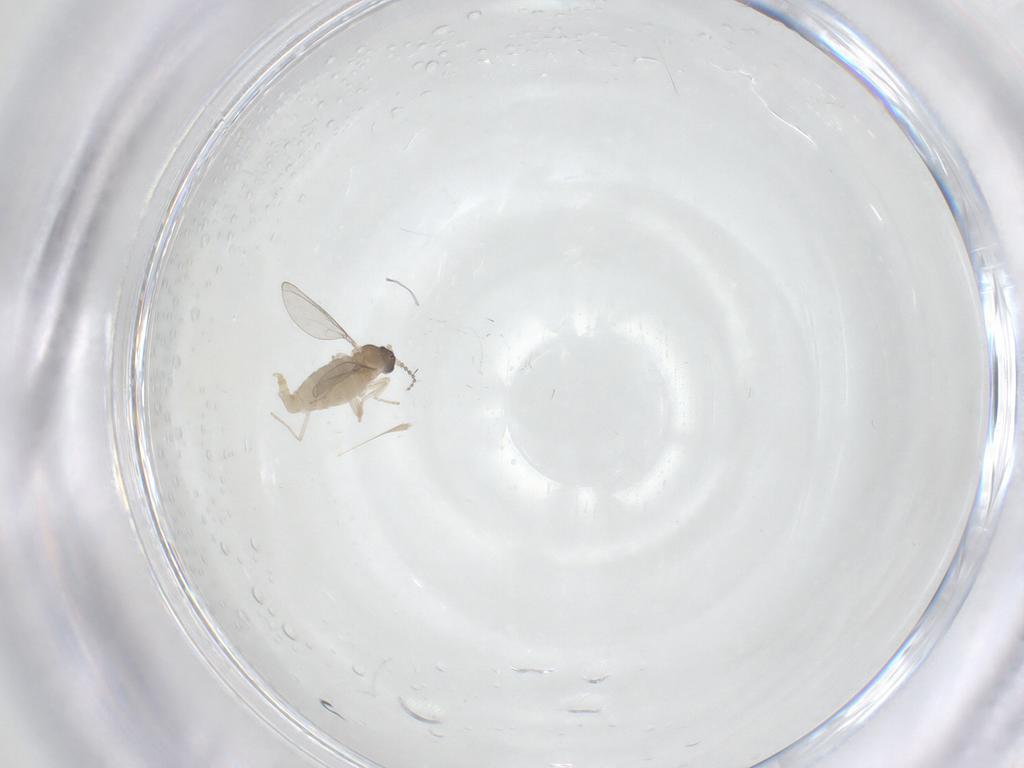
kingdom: Animalia
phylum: Arthropoda
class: Insecta
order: Diptera
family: Cecidomyiidae
